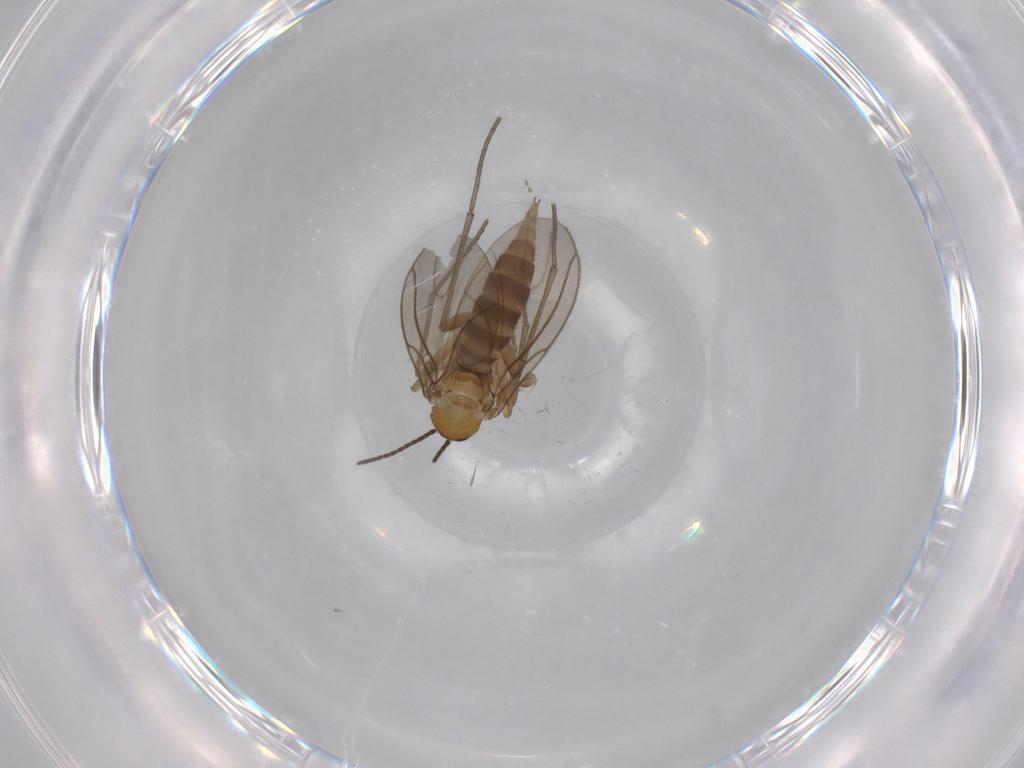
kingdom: Animalia
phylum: Arthropoda
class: Insecta
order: Diptera
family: Sciaridae
